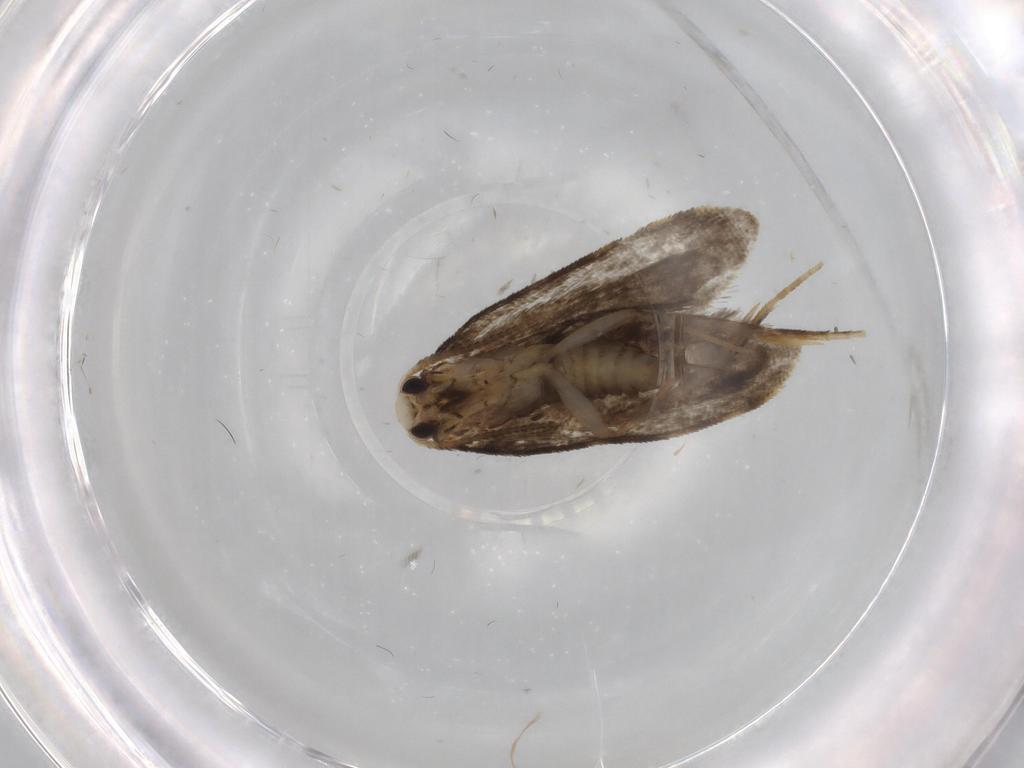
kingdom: Animalia
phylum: Arthropoda
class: Insecta
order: Lepidoptera
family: Psychidae
